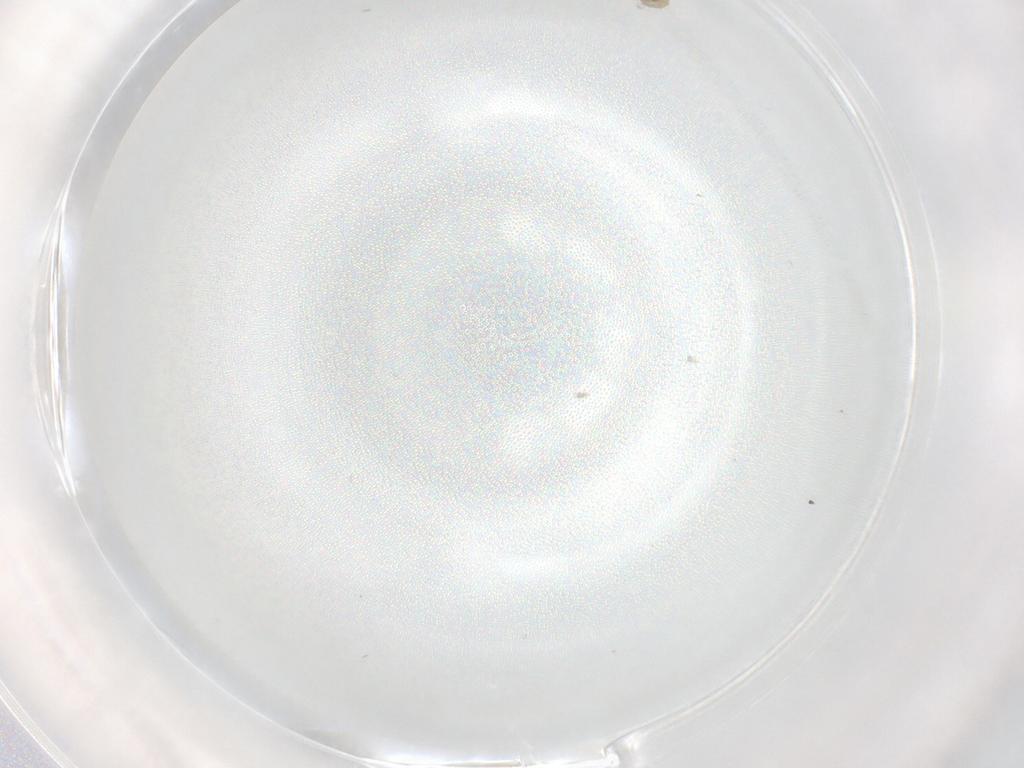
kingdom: Animalia
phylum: Arthropoda
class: Insecta
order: Diptera
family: Cecidomyiidae
